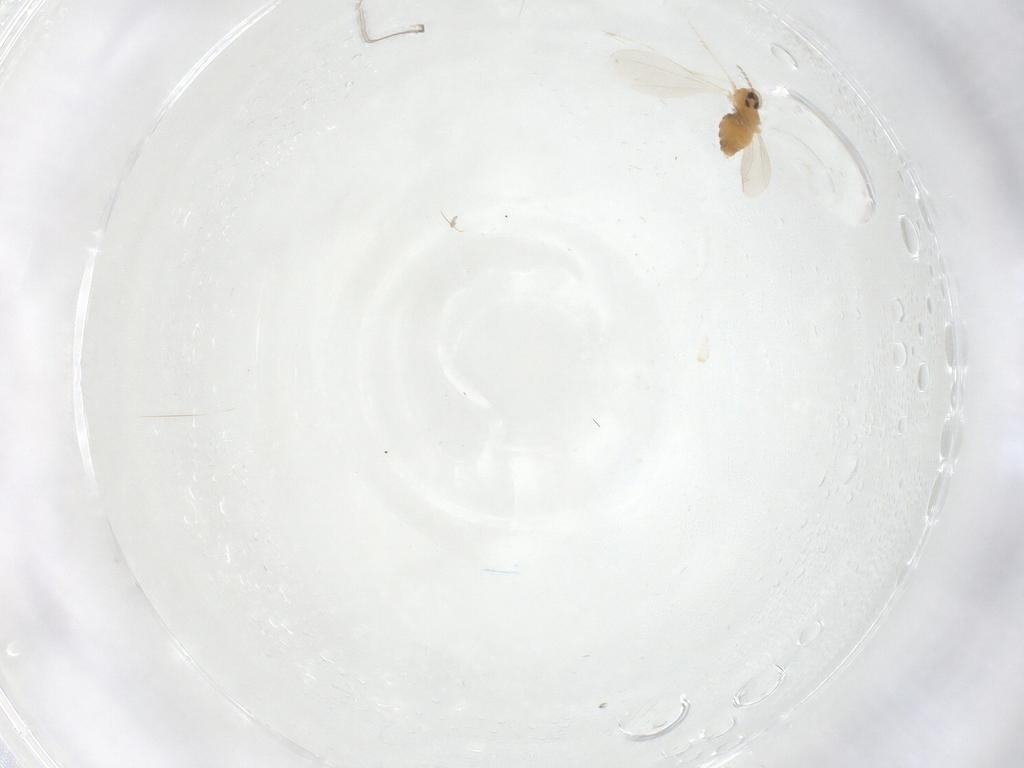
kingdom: Animalia
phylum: Arthropoda
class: Insecta
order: Diptera
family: Cecidomyiidae
